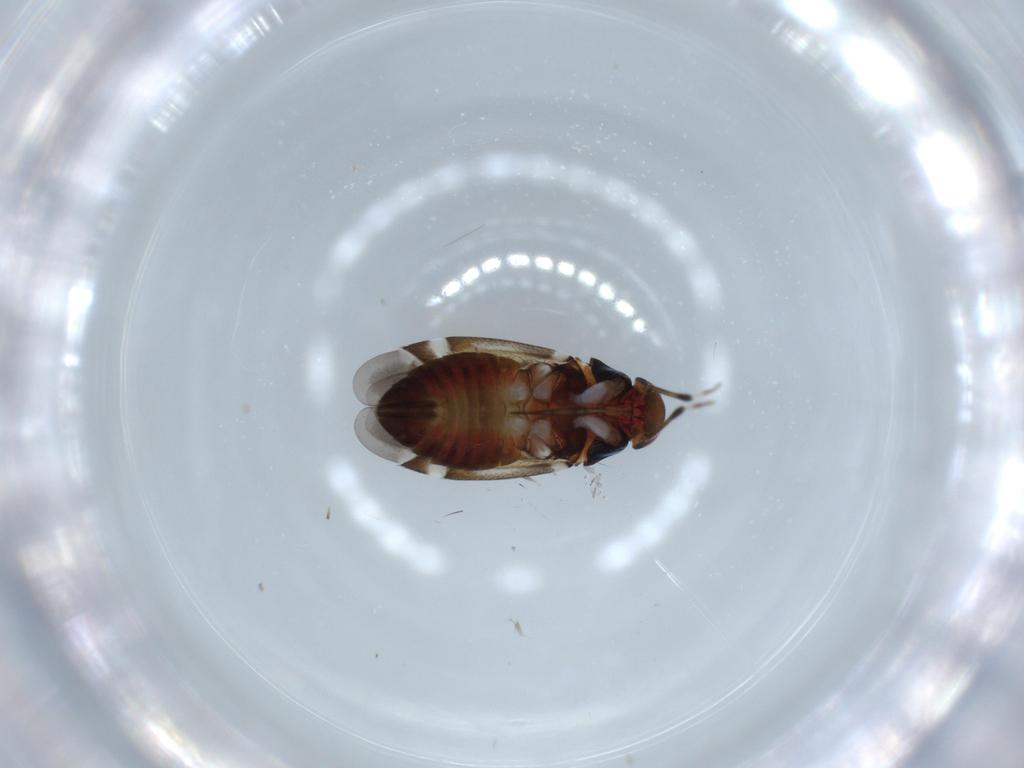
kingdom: Animalia
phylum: Arthropoda
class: Insecta
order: Hemiptera
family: Miridae
